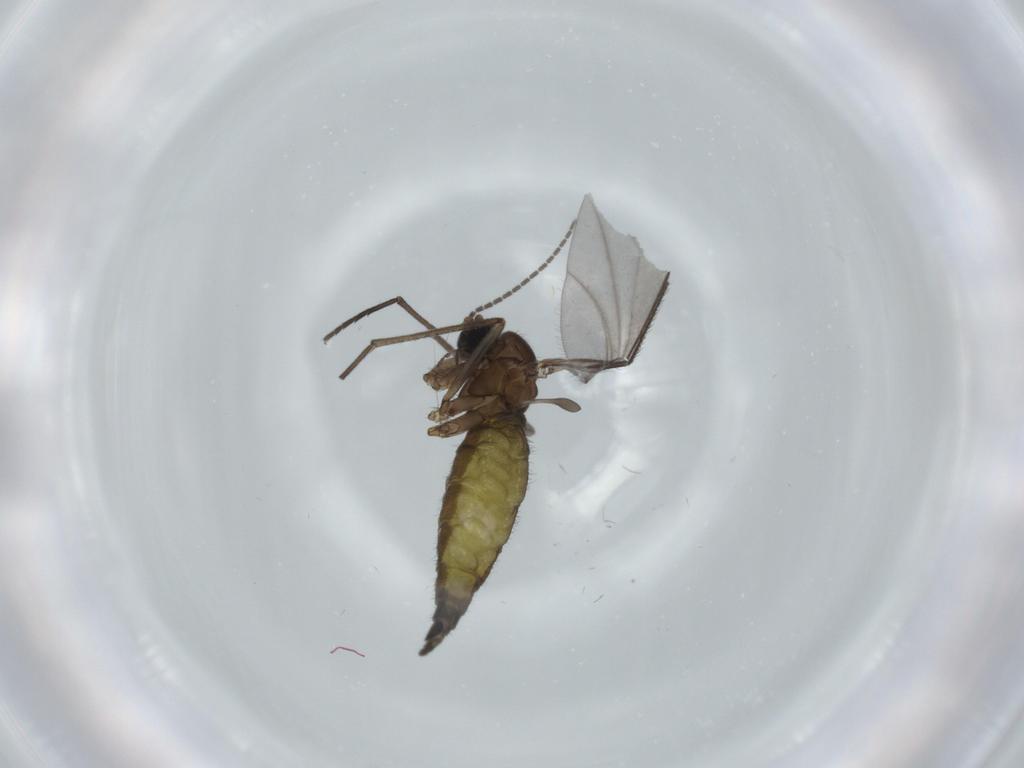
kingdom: Animalia
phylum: Arthropoda
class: Insecta
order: Diptera
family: Sciaridae
